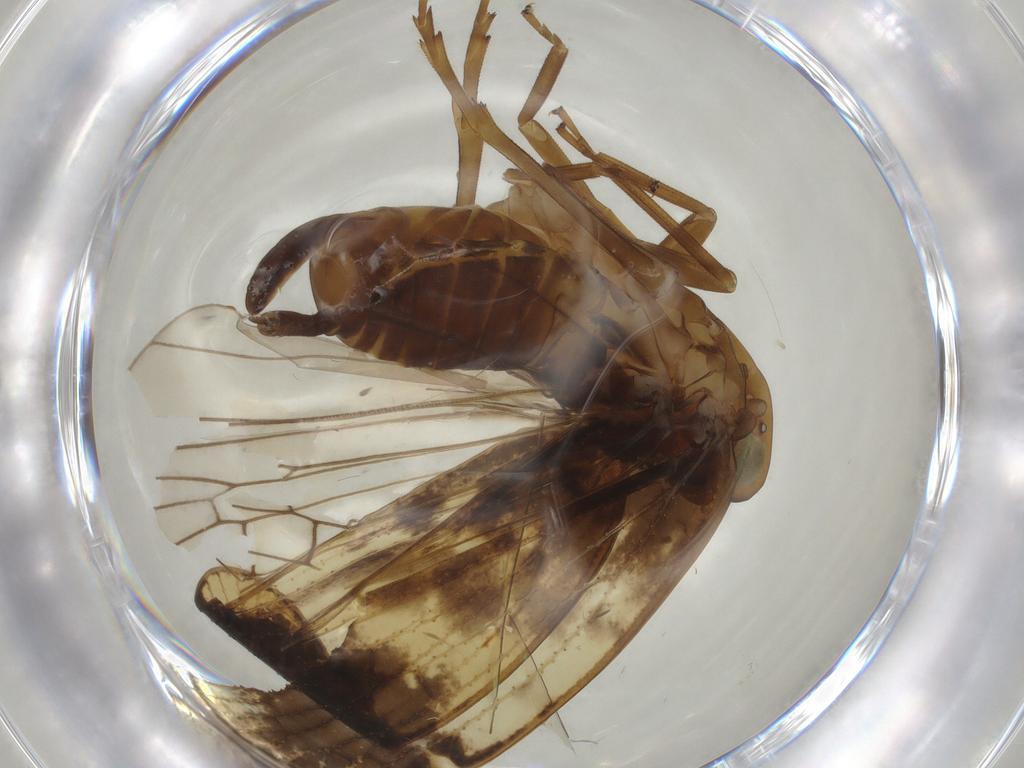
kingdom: Animalia
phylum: Arthropoda
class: Insecta
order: Hemiptera
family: Cixiidae
